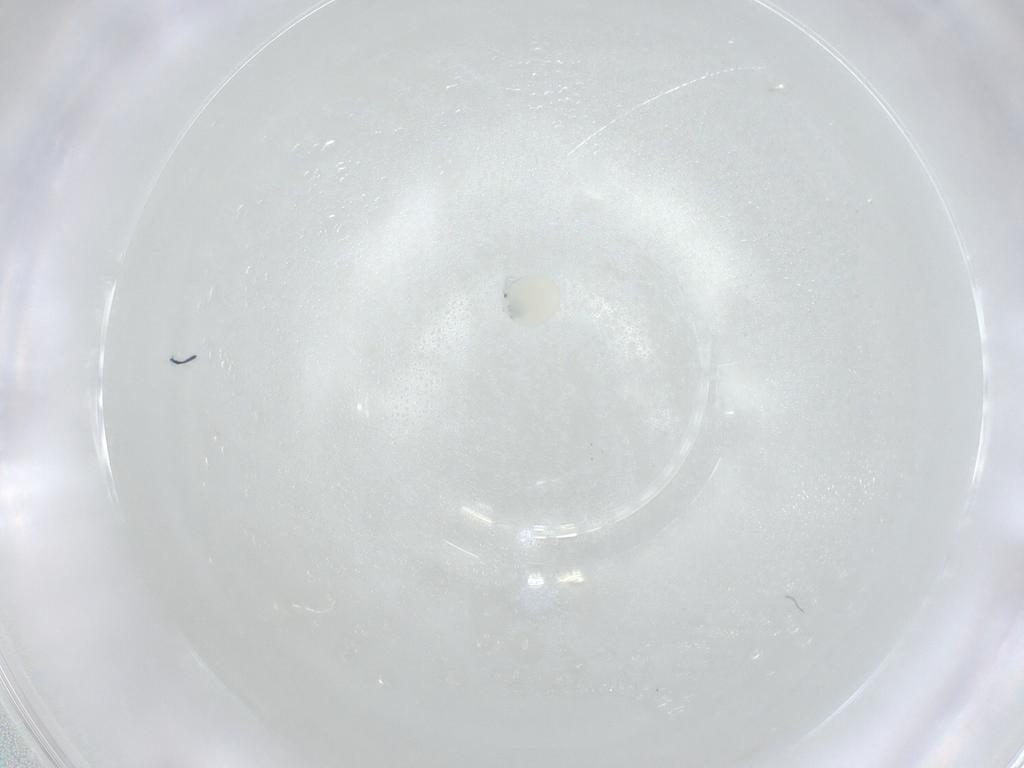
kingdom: Animalia
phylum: Arthropoda
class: Arachnida
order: Trombidiformes
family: Arrenuridae
